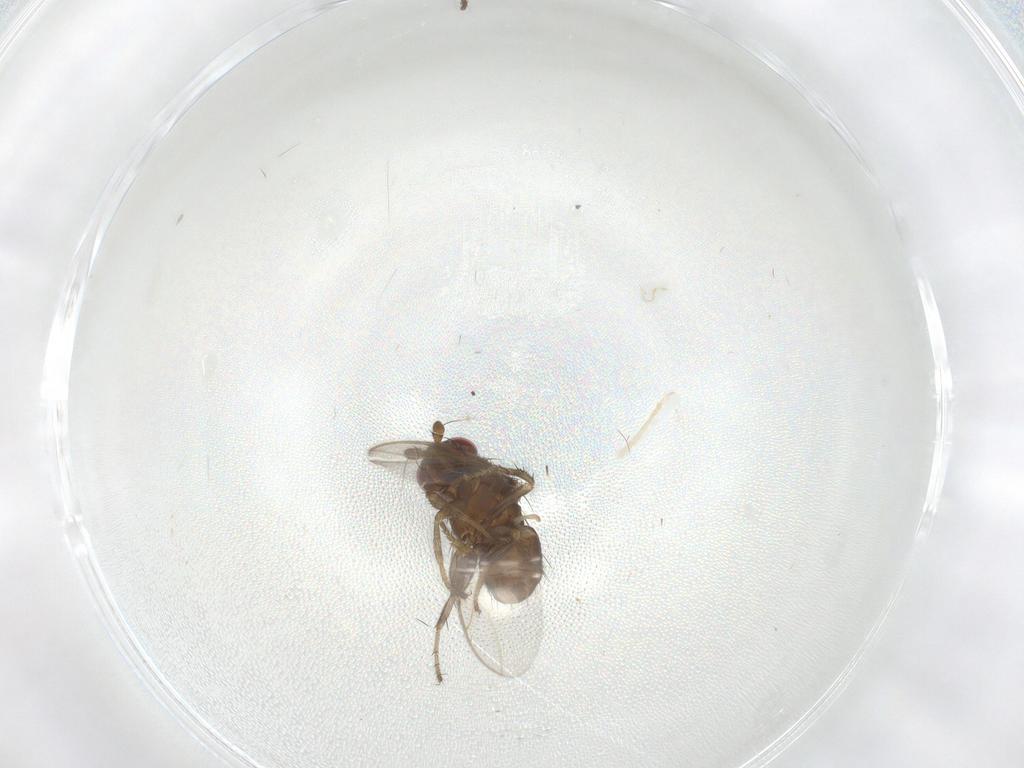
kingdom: Animalia
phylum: Arthropoda
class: Insecta
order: Diptera
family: Sphaeroceridae
